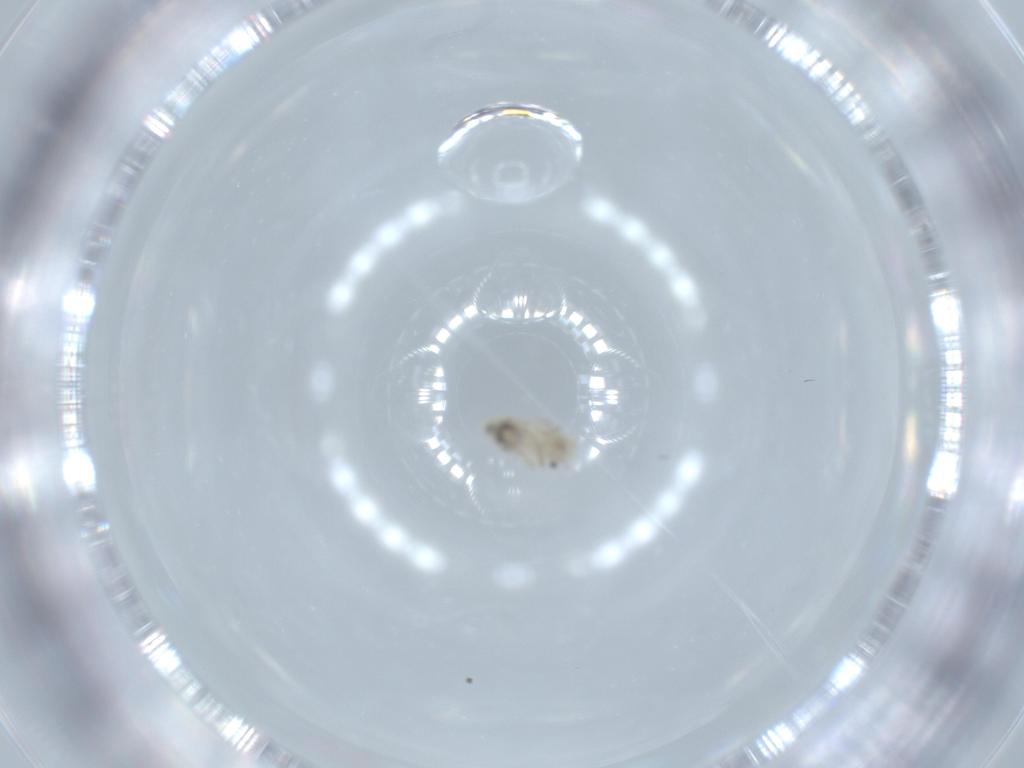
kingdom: Animalia
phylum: Arthropoda
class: Insecta
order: Psocodea
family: Caeciliusidae
